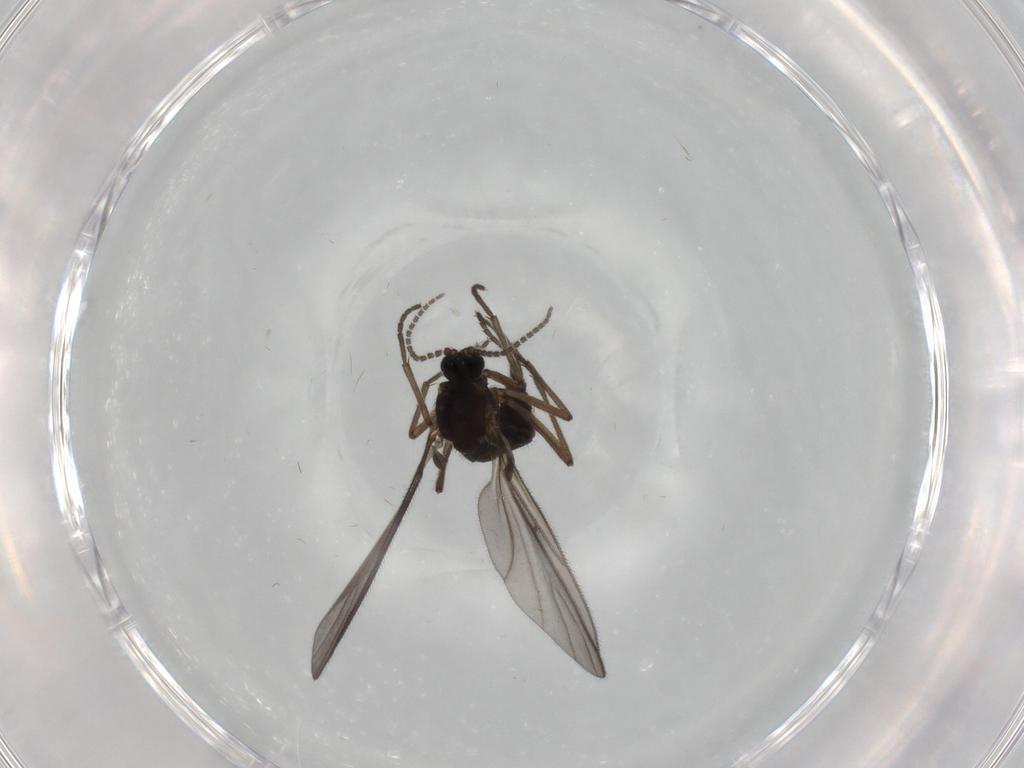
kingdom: Animalia
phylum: Arthropoda
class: Insecta
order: Diptera
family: Sciaridae
